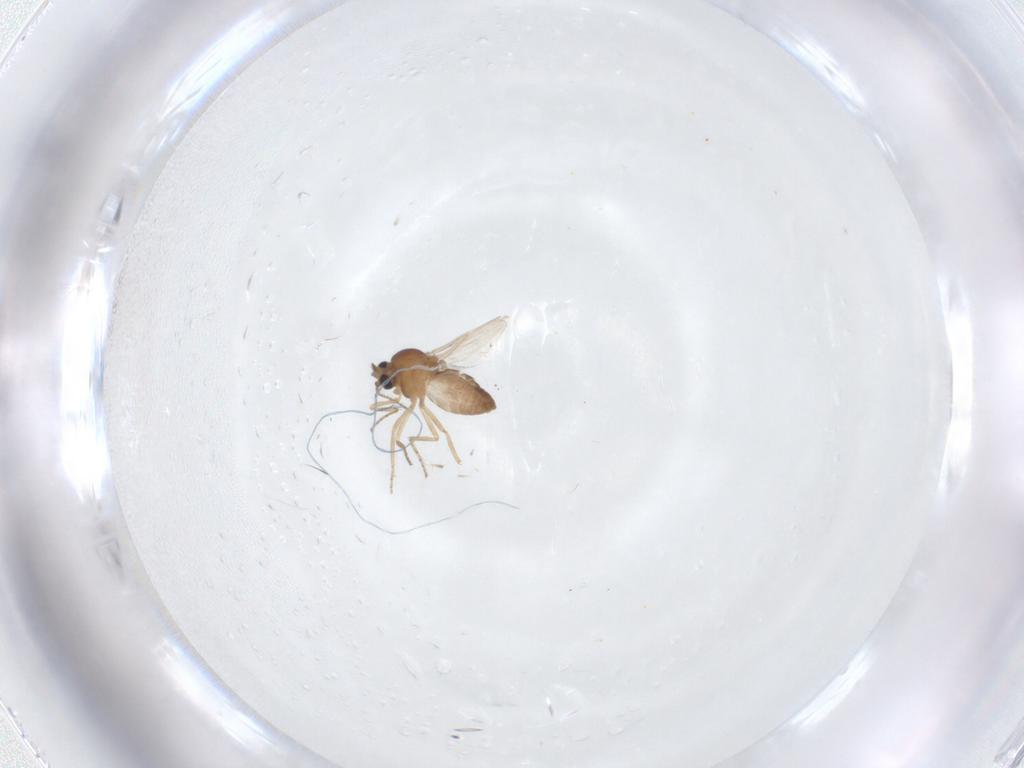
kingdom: Animalia
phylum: Arthropoda
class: Insecta
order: Diptera
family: Ceratopogonidae
